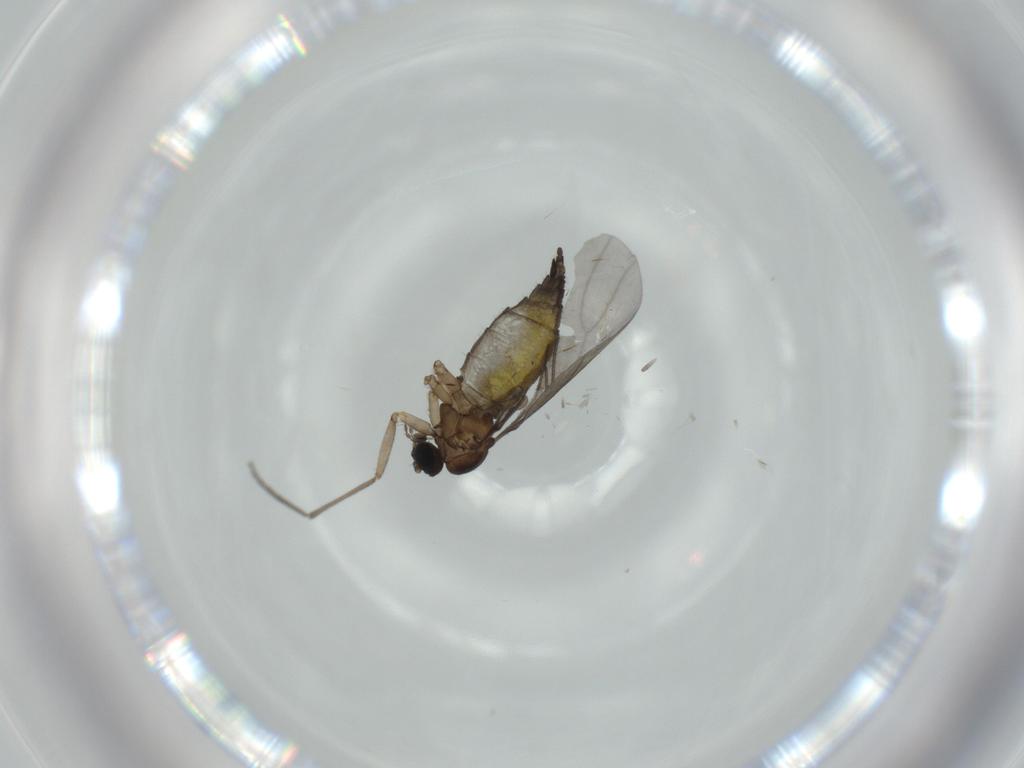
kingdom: Animalia
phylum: Arthropoda
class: Insecta
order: Diptera
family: Sciaridae
